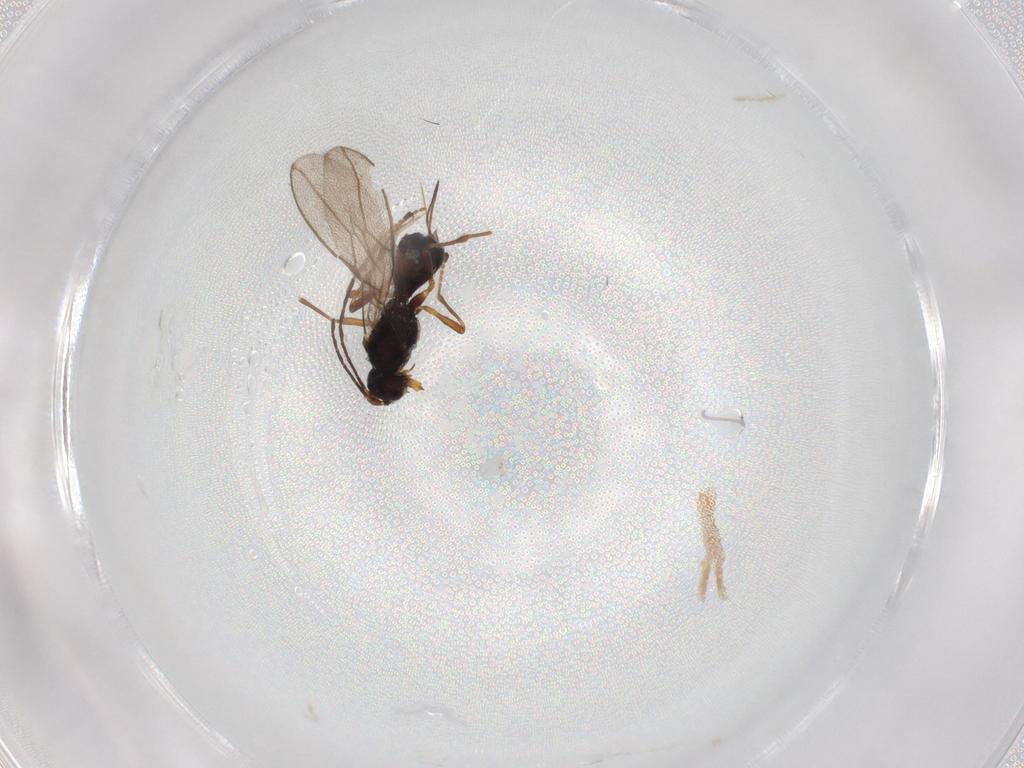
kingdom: Animalia
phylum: Arthropoda
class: Insecta
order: Hymenoptera
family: Braconidae
